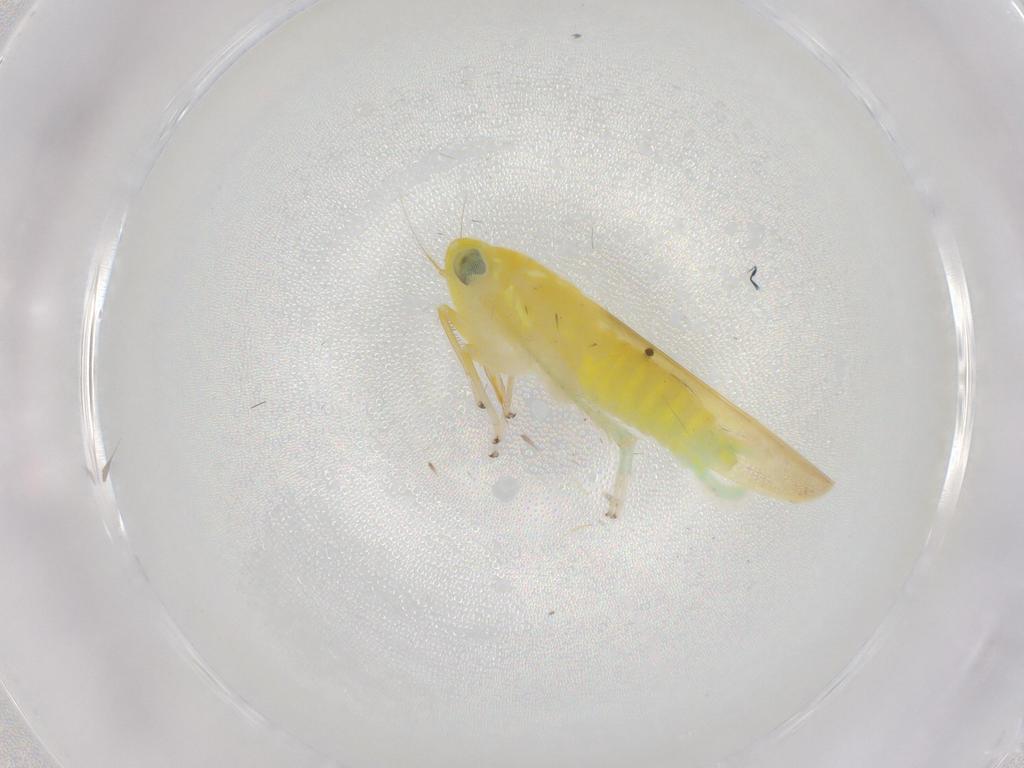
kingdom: Animalia
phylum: Arthropoda
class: Insecta
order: Hemiptera
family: Cicadellidae
